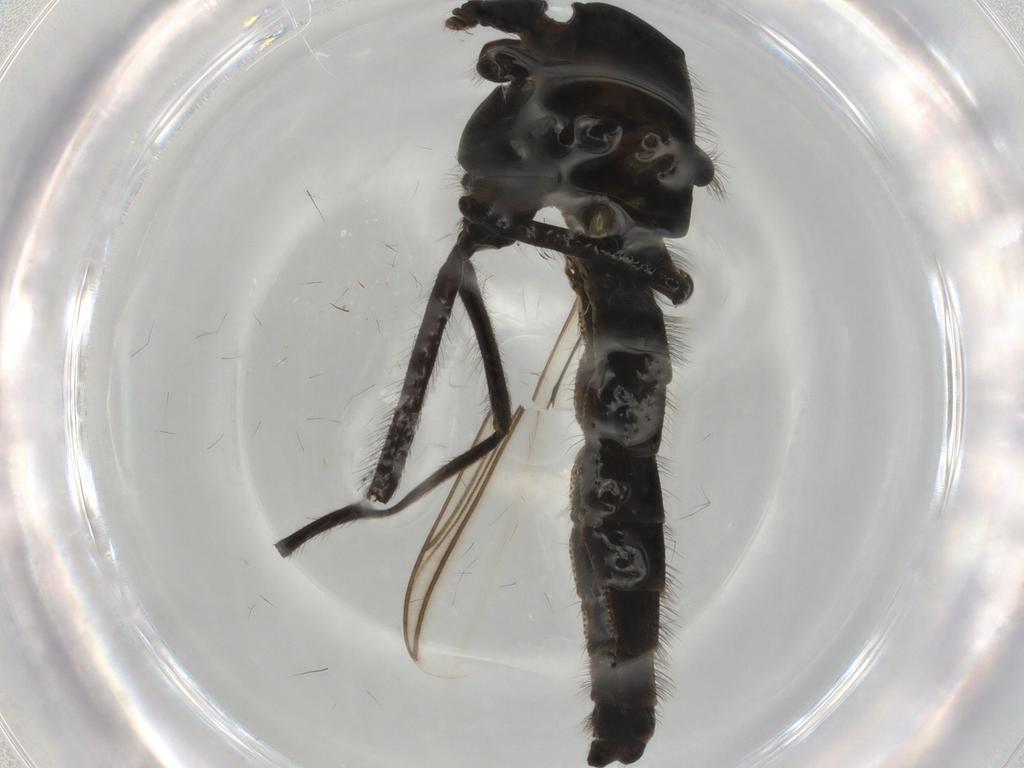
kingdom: Animalia
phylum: Arthropoda
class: Insecta
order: Diptera
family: Chironomidae
